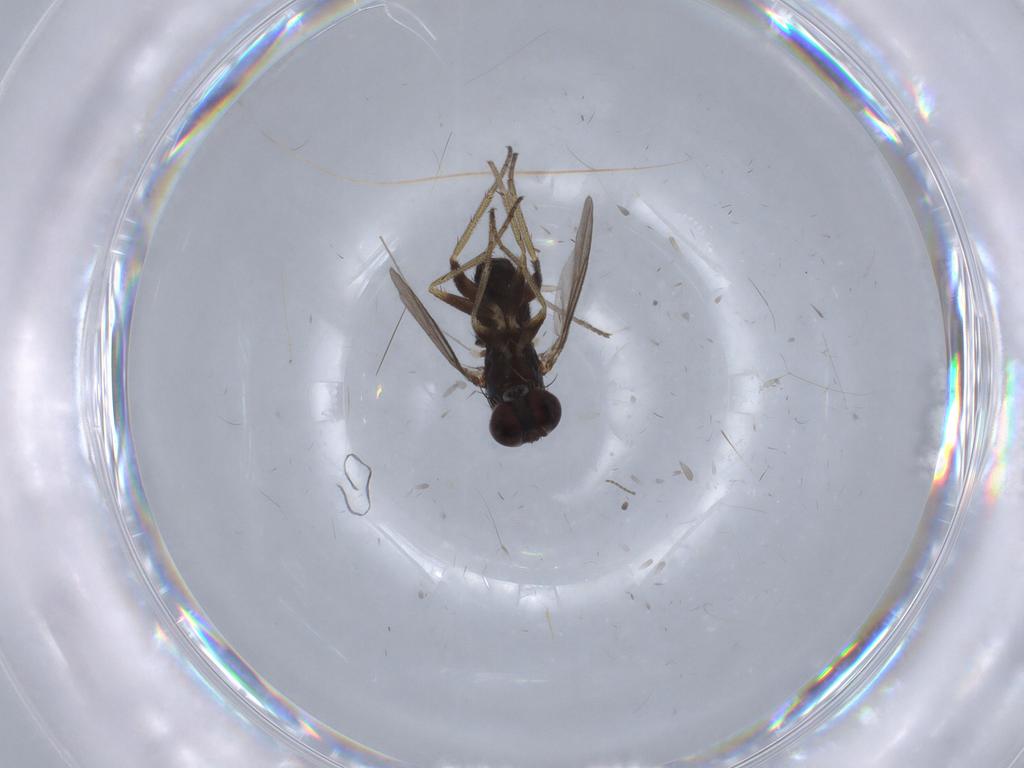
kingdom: Animalia
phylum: Arthropoda
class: Insecta
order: Diptera
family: Cecidomyiidae
